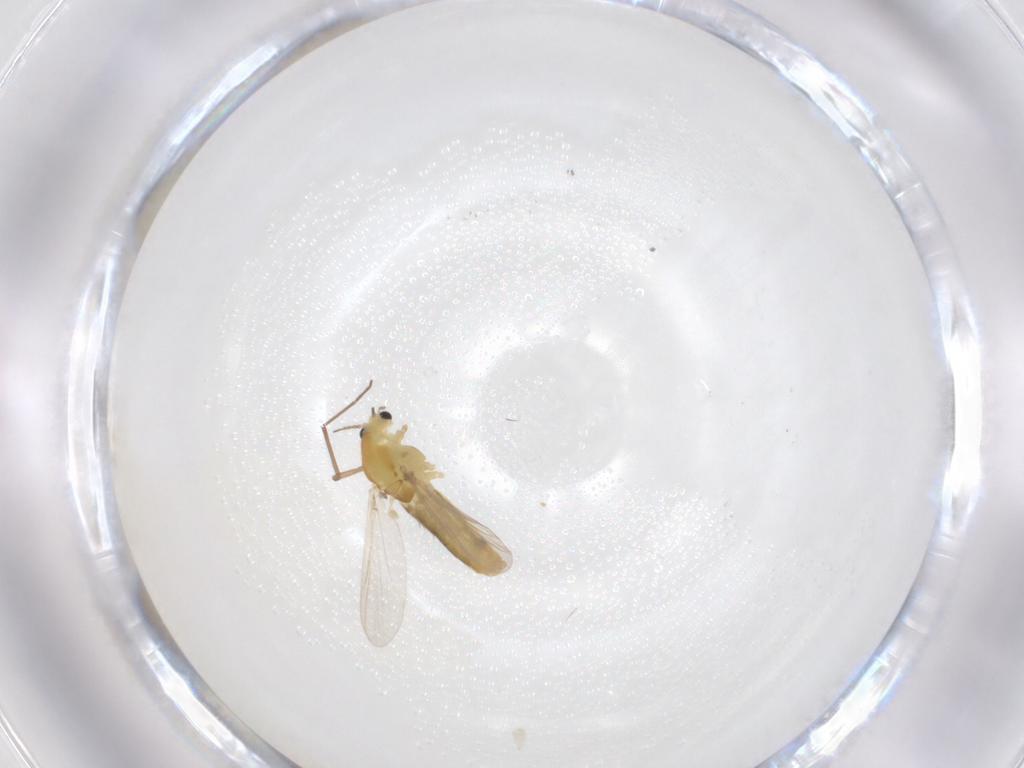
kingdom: Animalia
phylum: Arthropoda
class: Insecta
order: Diptera
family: Chironomidae
